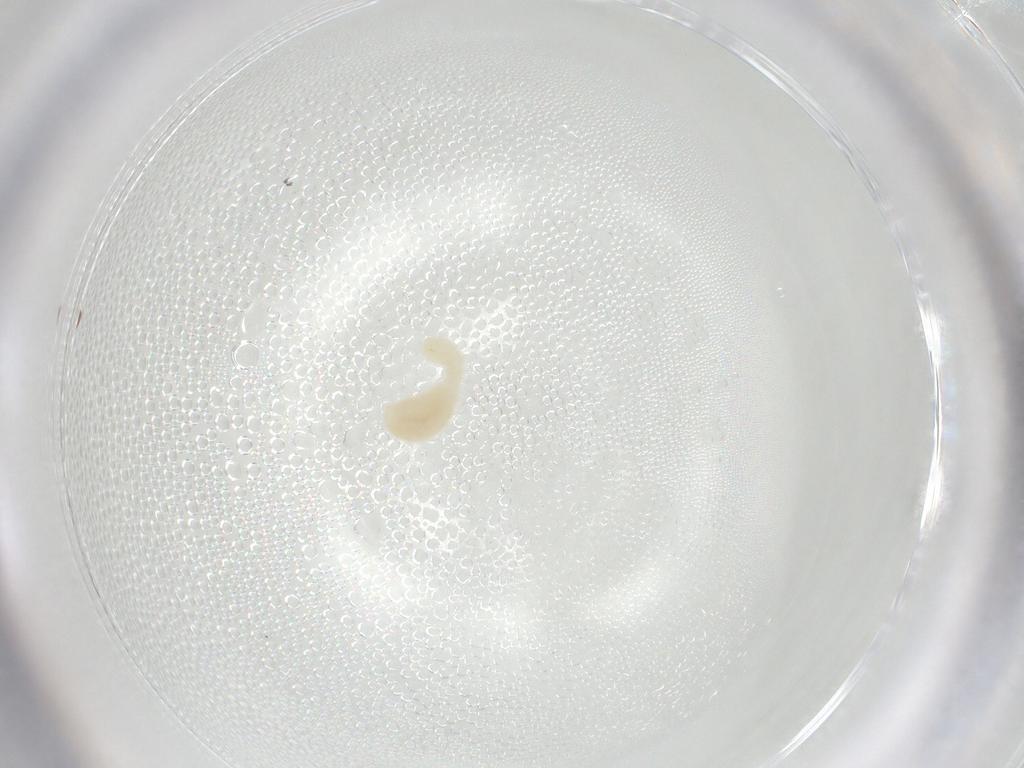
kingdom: Animalia
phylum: Arthropoda
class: Insecta
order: Hymenoptera
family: Formicidae
